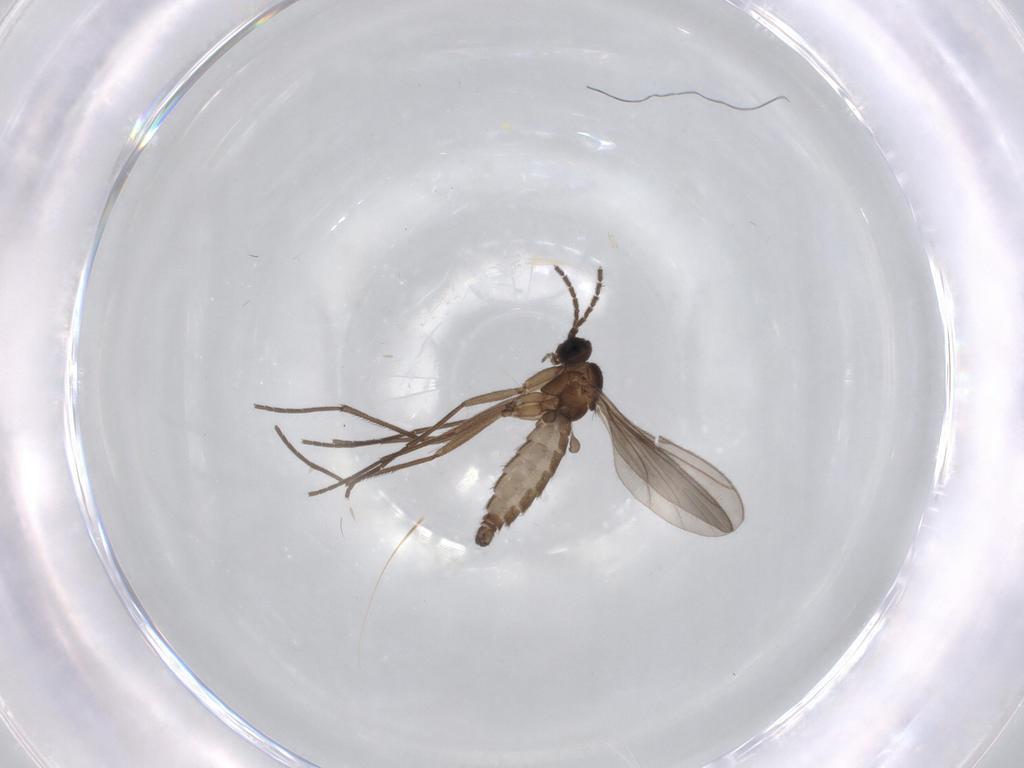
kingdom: Animalia
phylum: Arthropoda
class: Insecta
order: Diptera
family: Sciaridae
